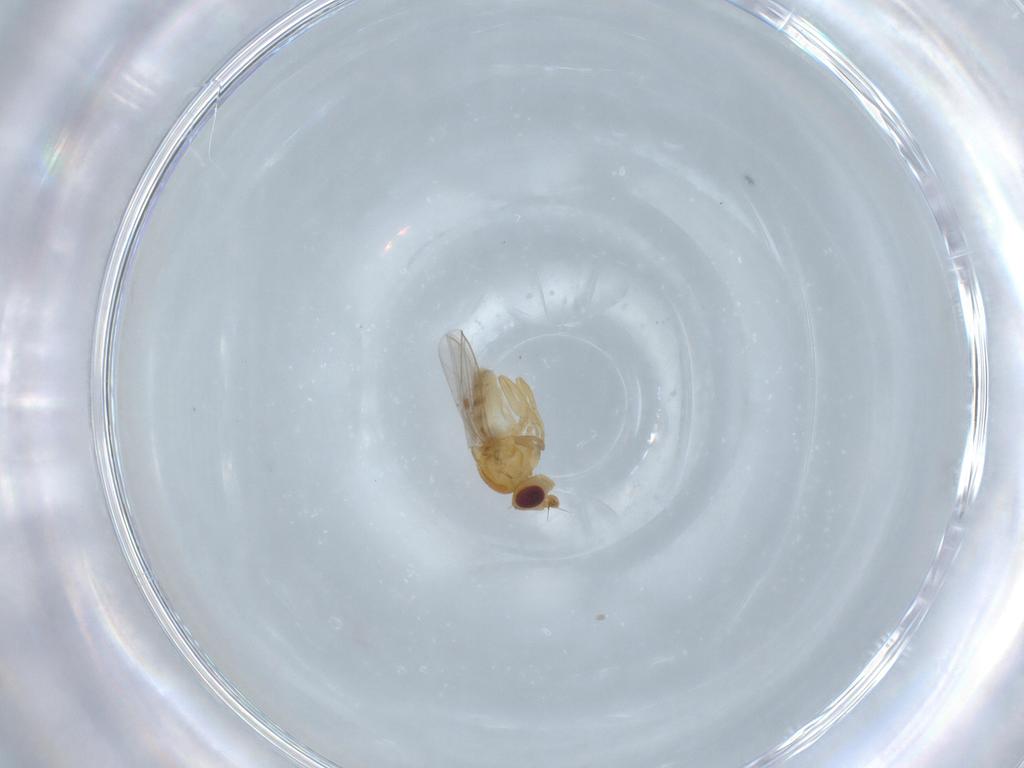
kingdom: Animalia
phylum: Arthropoda
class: Insecta
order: Diptera
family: Chloropidae
